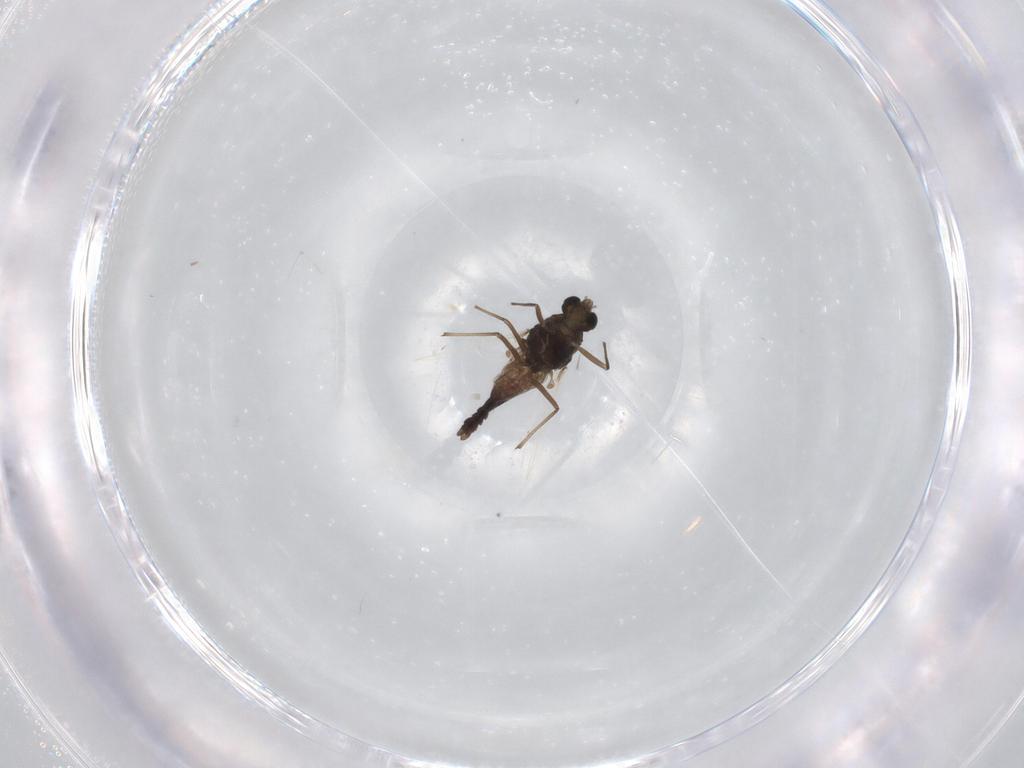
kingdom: Animalia
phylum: Arthropoda
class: Insecta
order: Diptera
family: Chironomidae
